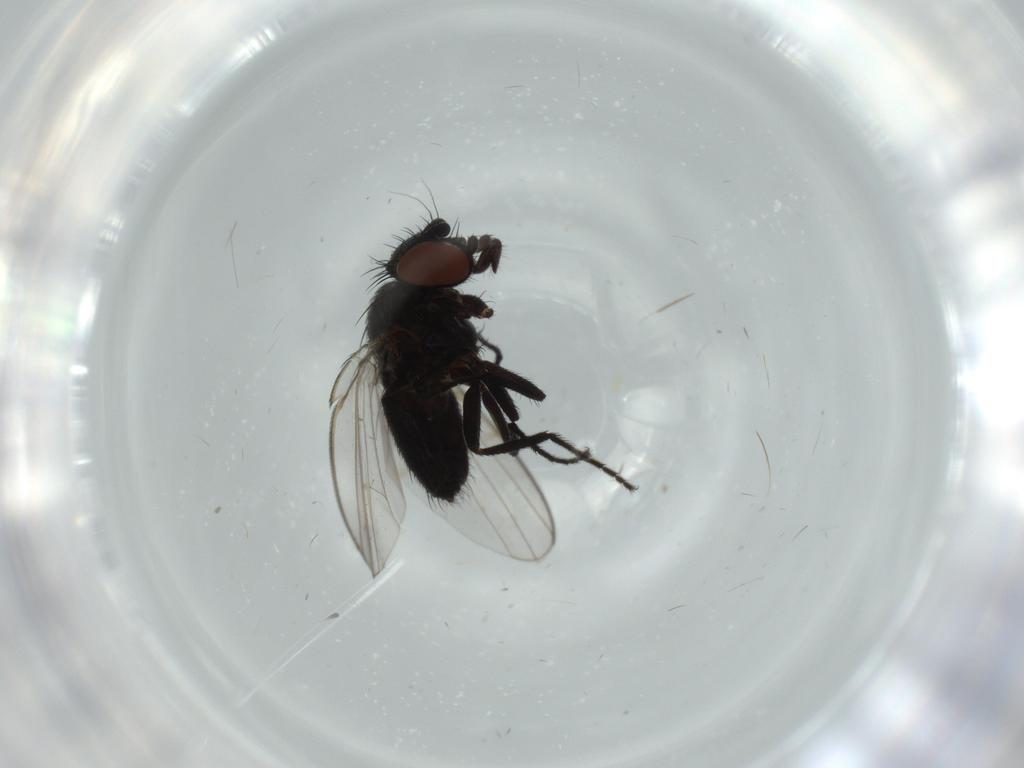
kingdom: Animalia
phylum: Arthropoda
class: Insecta
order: Diptera
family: Milichiidae
